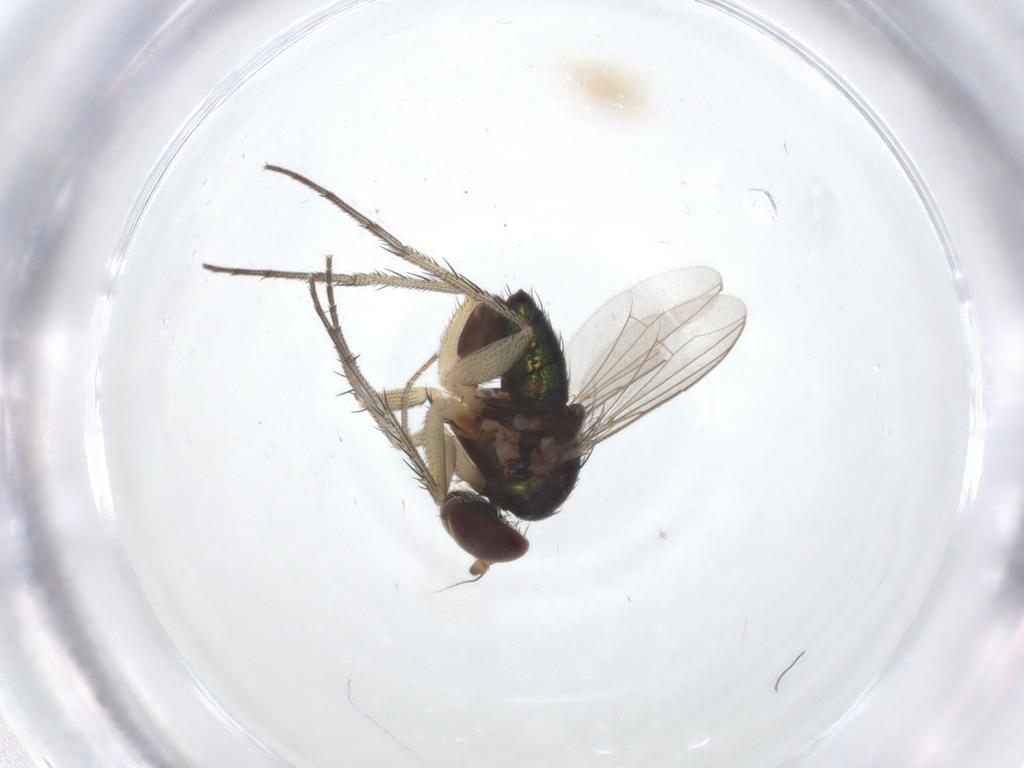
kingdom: Animalia
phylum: Arthropoda
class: Insecta
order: Diptera
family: Dolichopodidae
